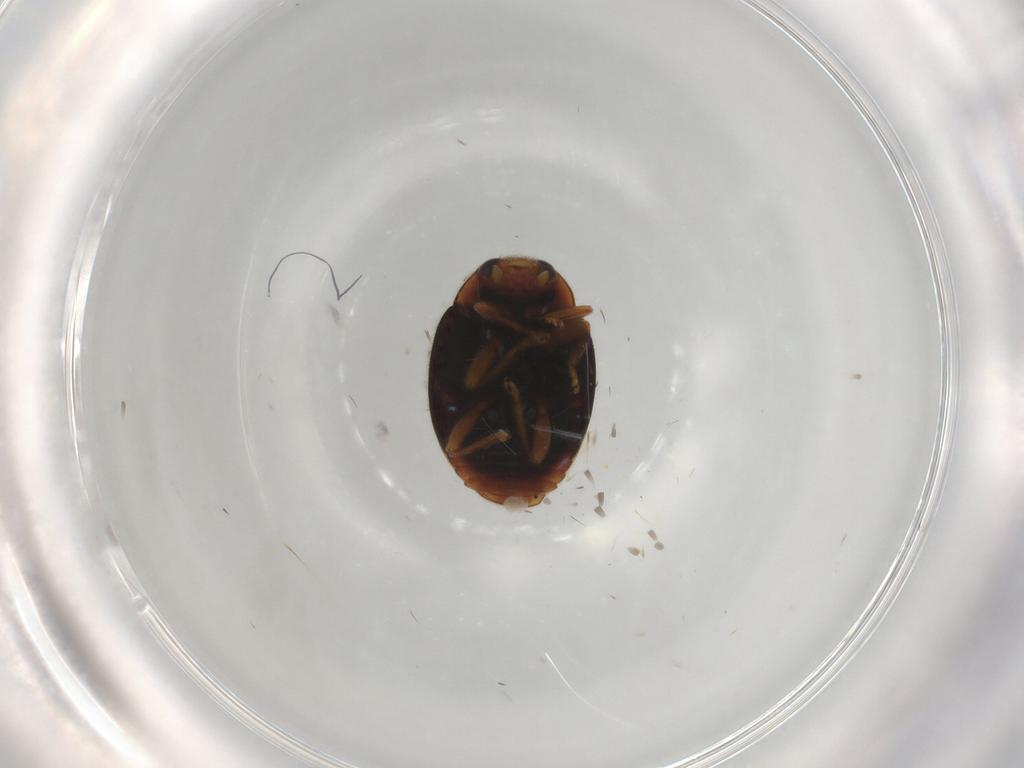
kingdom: Animalia
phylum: Arthropoda
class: Insecta
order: Coleoptera
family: Coccinellidae
